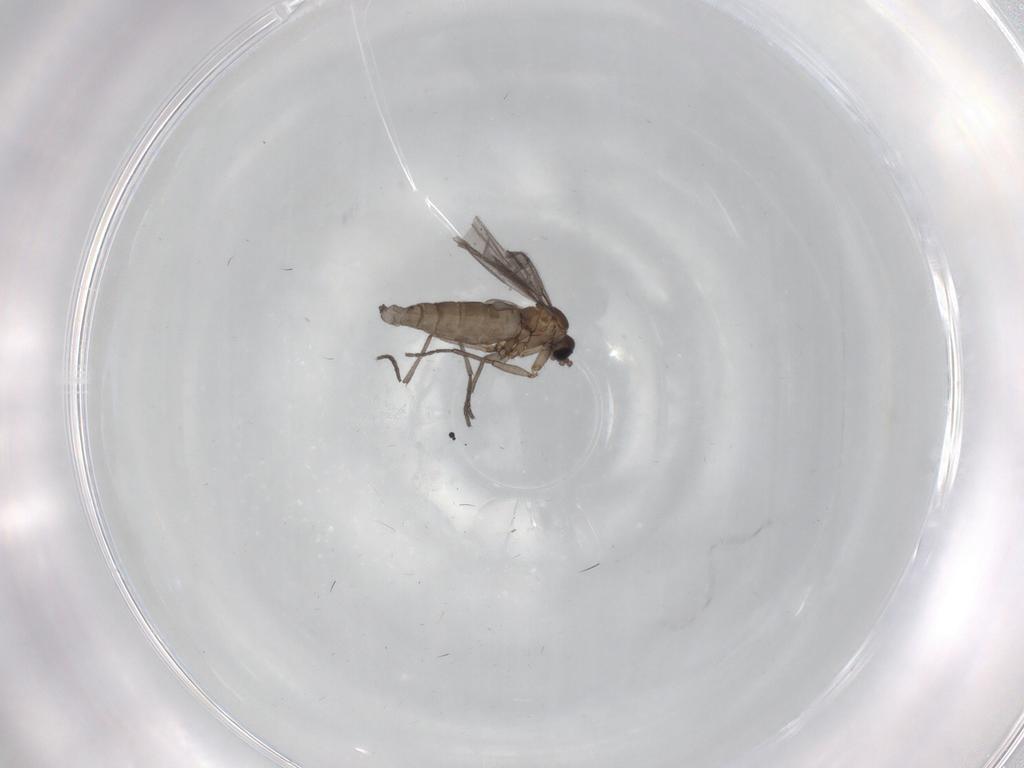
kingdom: Animalia
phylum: Arthropoda
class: Insecta
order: Diptera
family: Sciaridae
